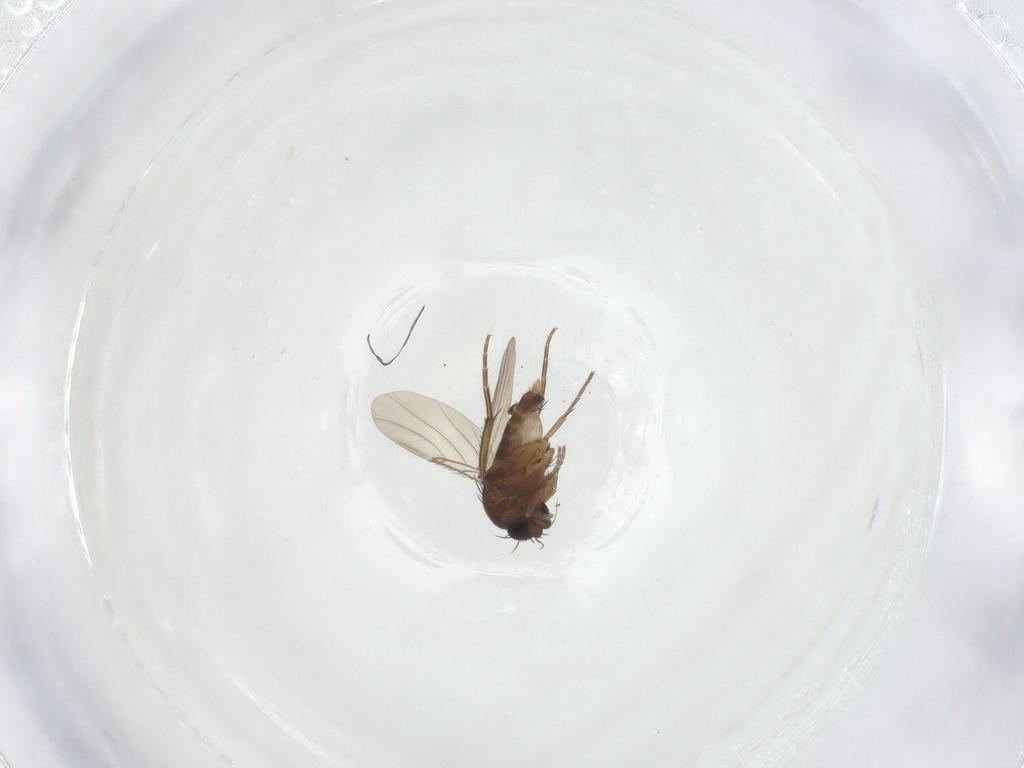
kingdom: Animalia
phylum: Arthropoda
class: Insecta
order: Diptera
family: Phoridae
